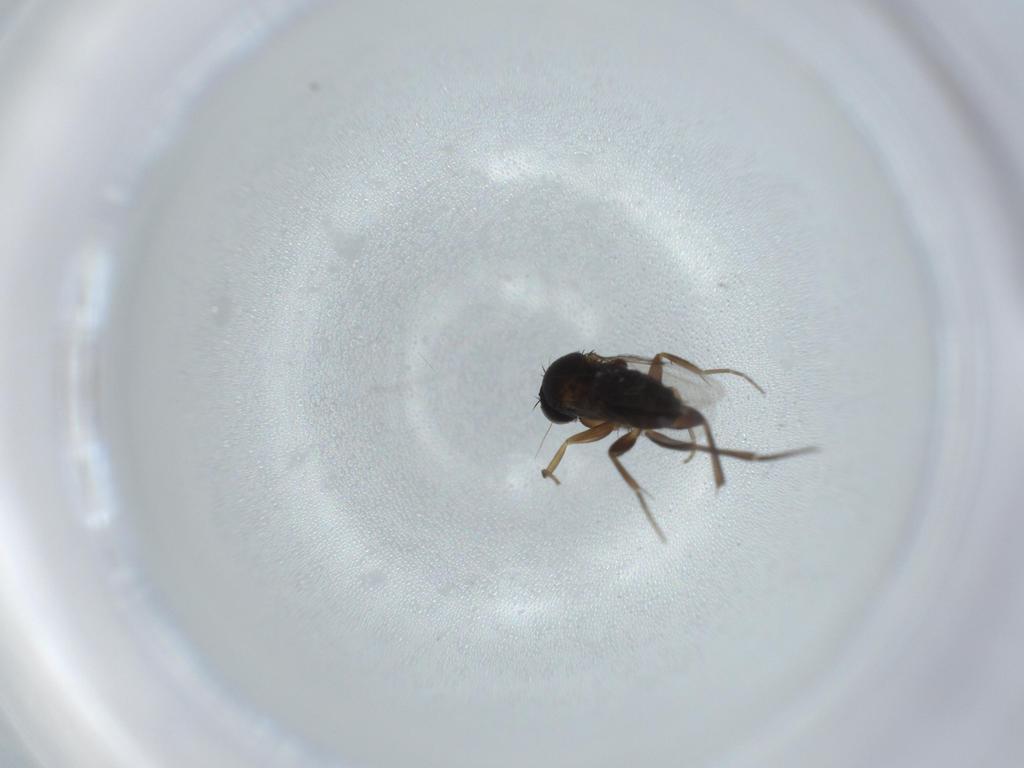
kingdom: Animalia
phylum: Arthropoda
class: Insecta
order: Diptera
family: Phoridae
